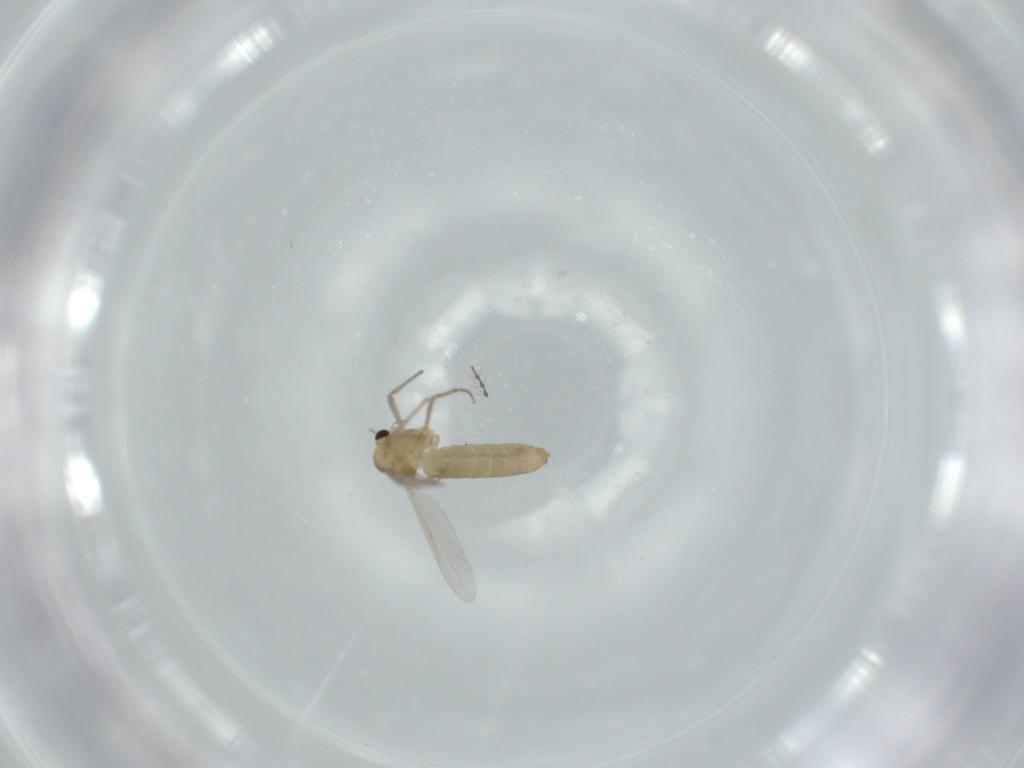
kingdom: Animalia
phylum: Arthropoda
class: Insecta
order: Diptera
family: Chironomidae
